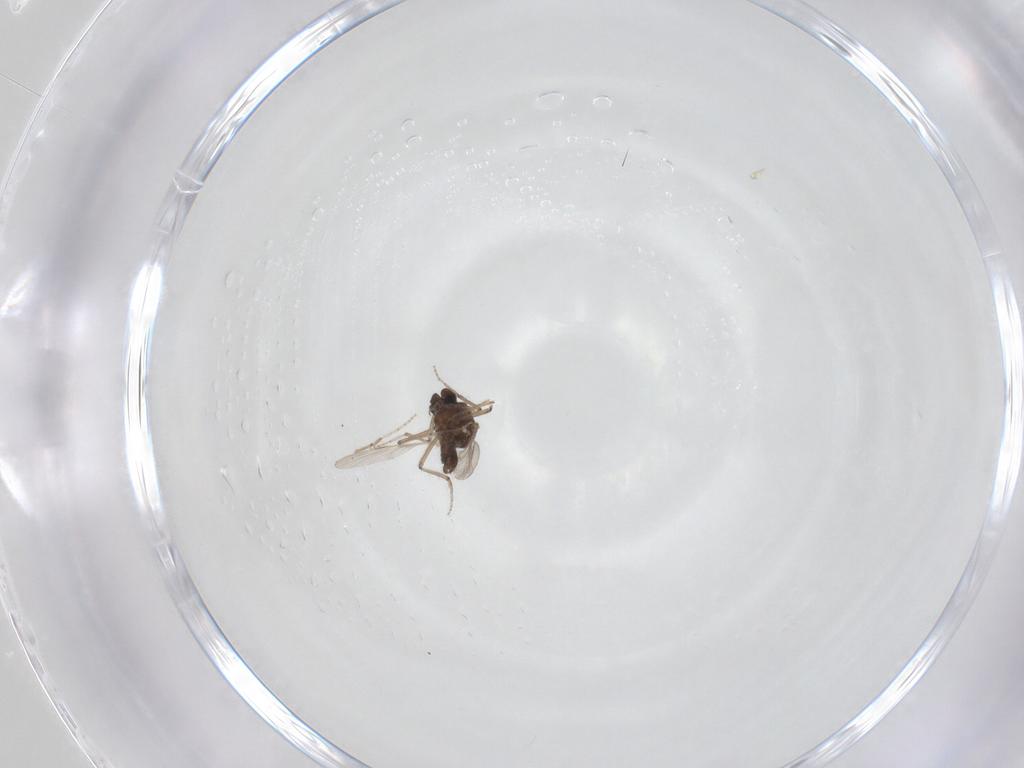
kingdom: Animalia
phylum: Arthropoda
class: Insecta
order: Diptera
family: Ceratopogonidae
